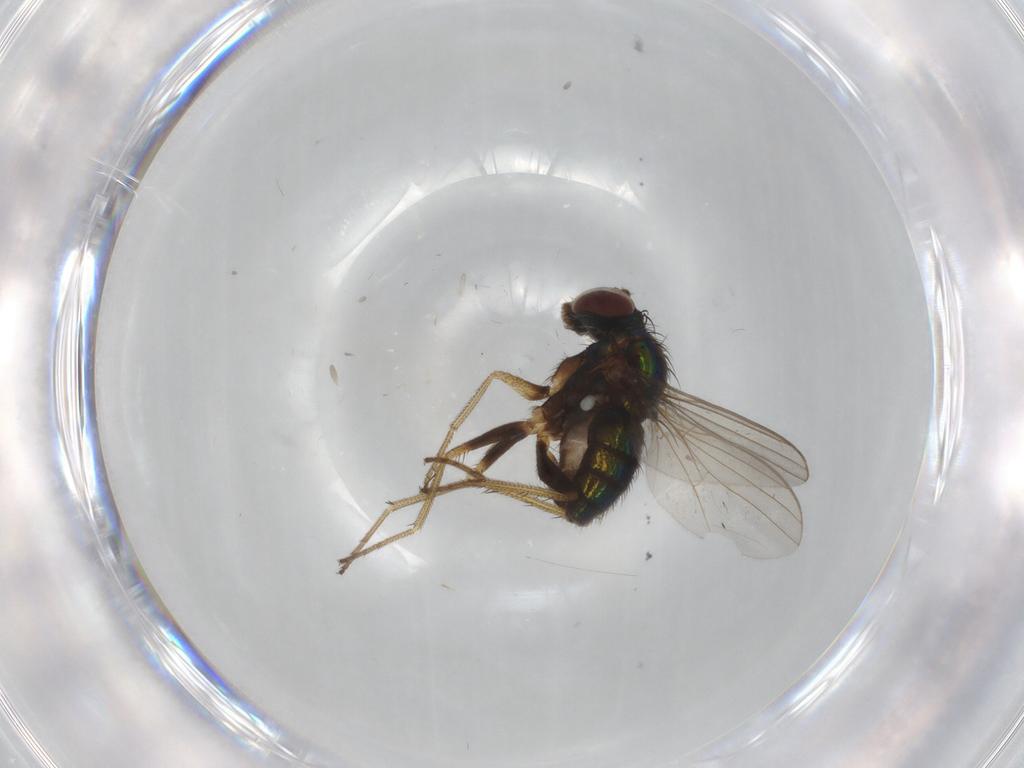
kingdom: Animalia
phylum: Arthropoda
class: Insecta
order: Diptera
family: Dolichopodidae
